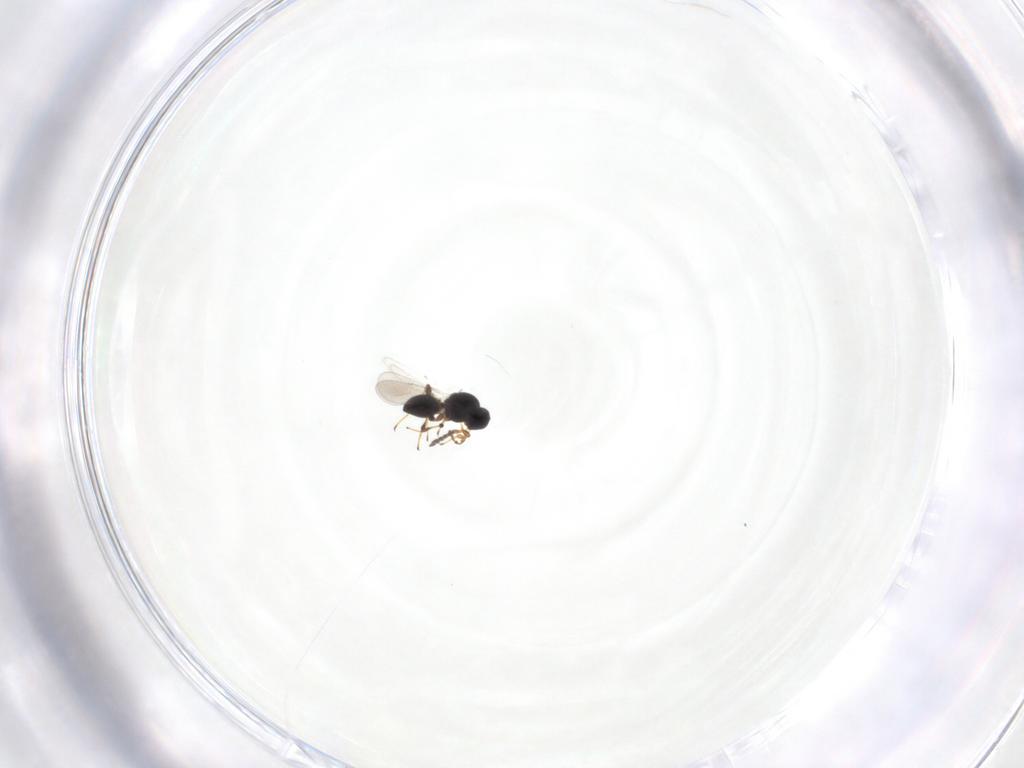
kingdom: Animalia
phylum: Arthropoda
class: Insecta
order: Hymenoptera
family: Platygastridae
